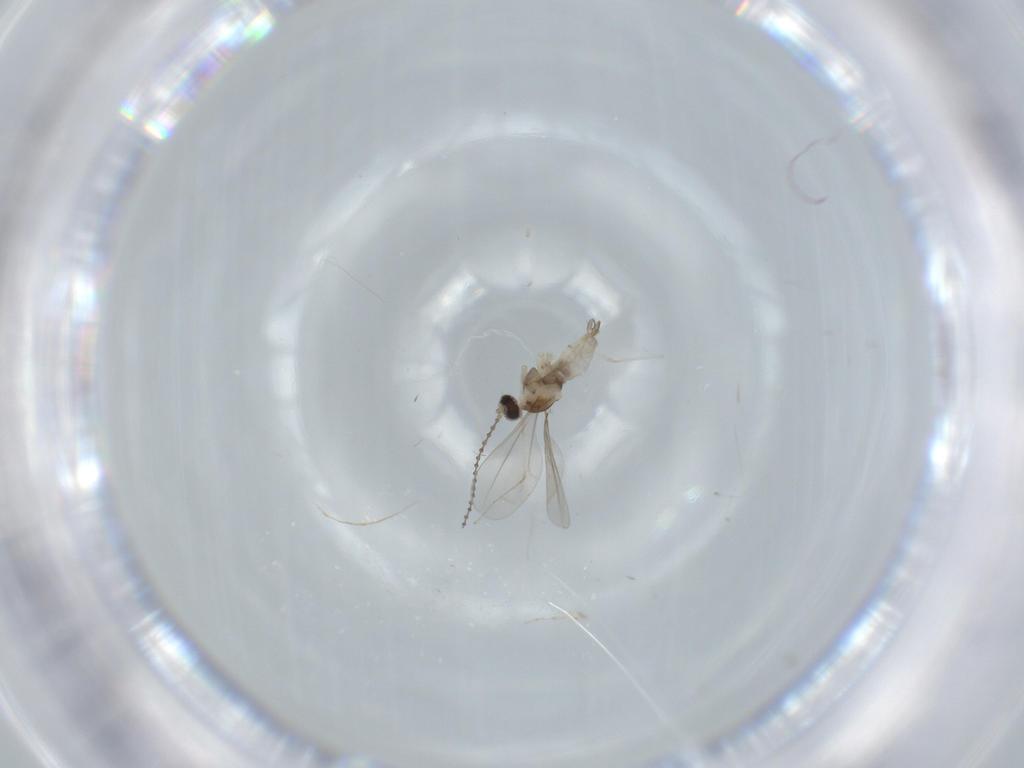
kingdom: Animalia
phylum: Arthropoda
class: Insecta
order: Diptera
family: Cecidomyiidae
